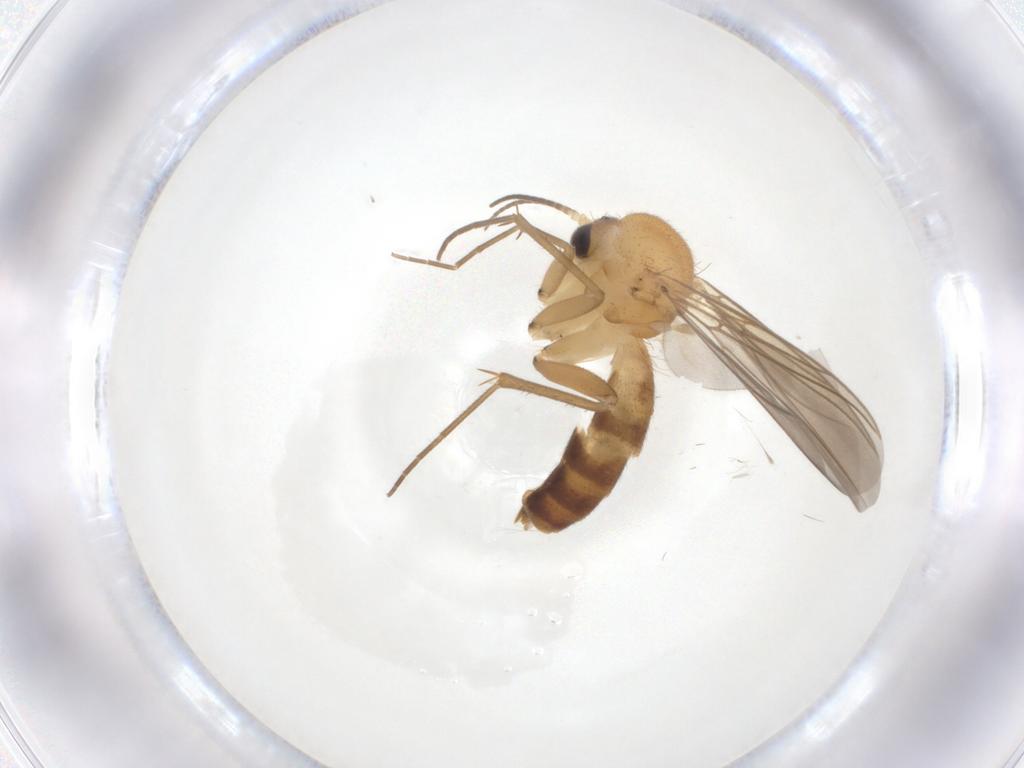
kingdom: Animalia
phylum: Arthropoda
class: Insecta
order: Diptera
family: Mycetophilidae
